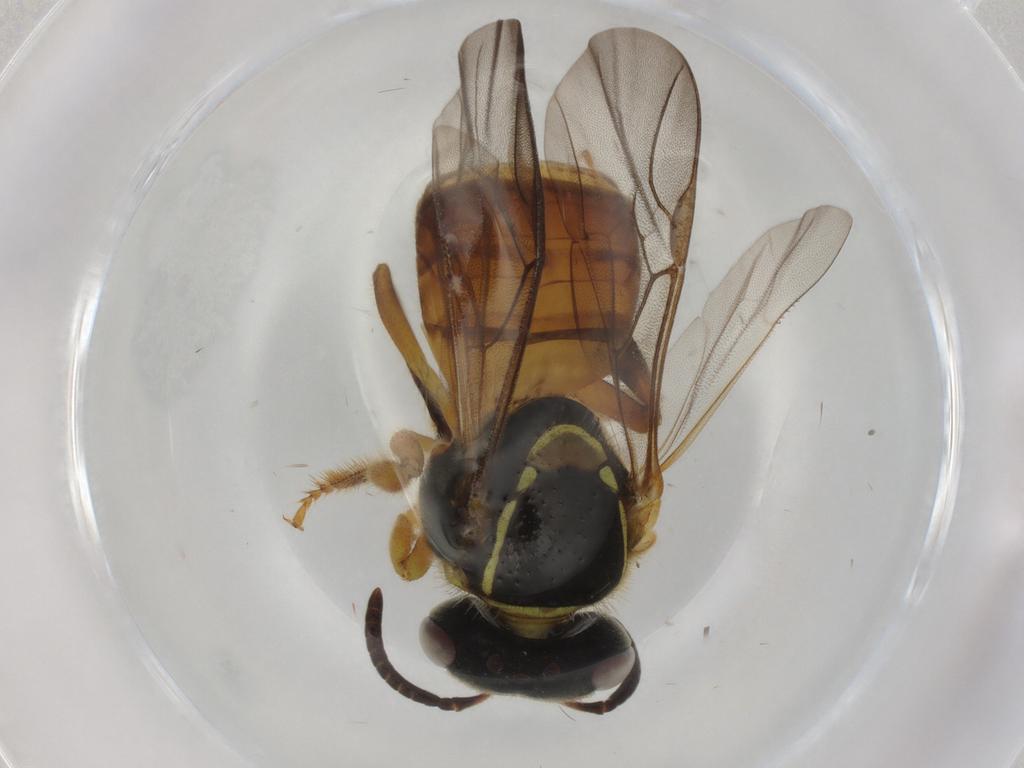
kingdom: Animalia
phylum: Arthropoda
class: Insecta
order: Hymenoptera
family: Apidae
